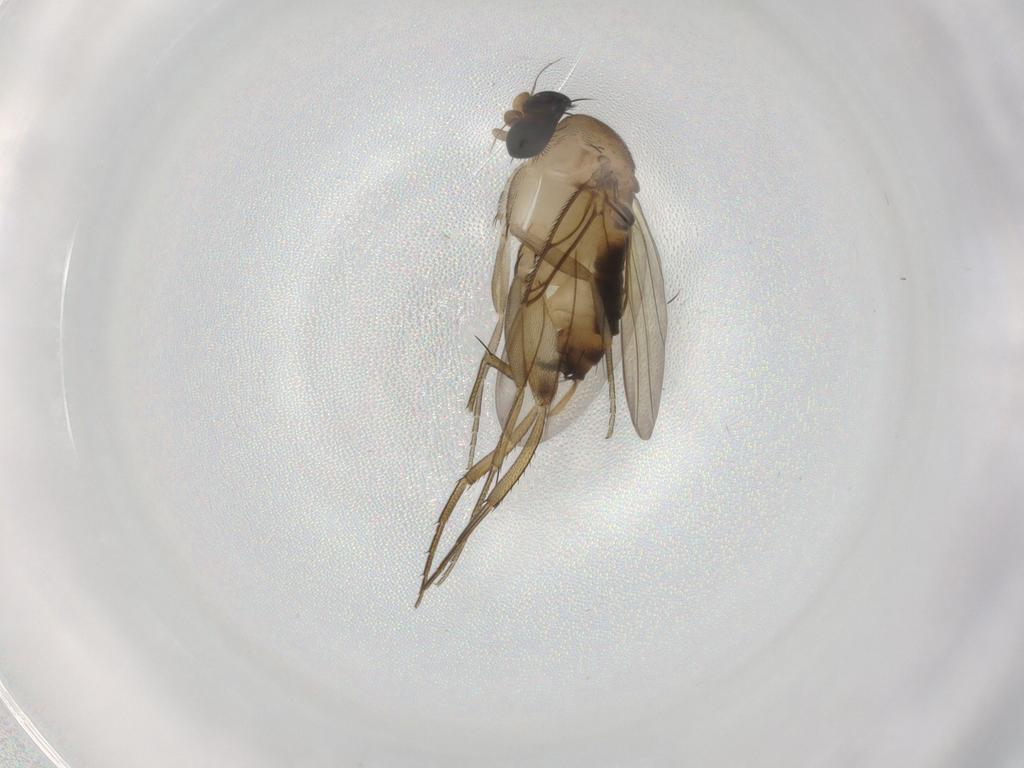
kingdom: Animalia
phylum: Arthropoda
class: Insecta
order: Diptera
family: Phoridae
